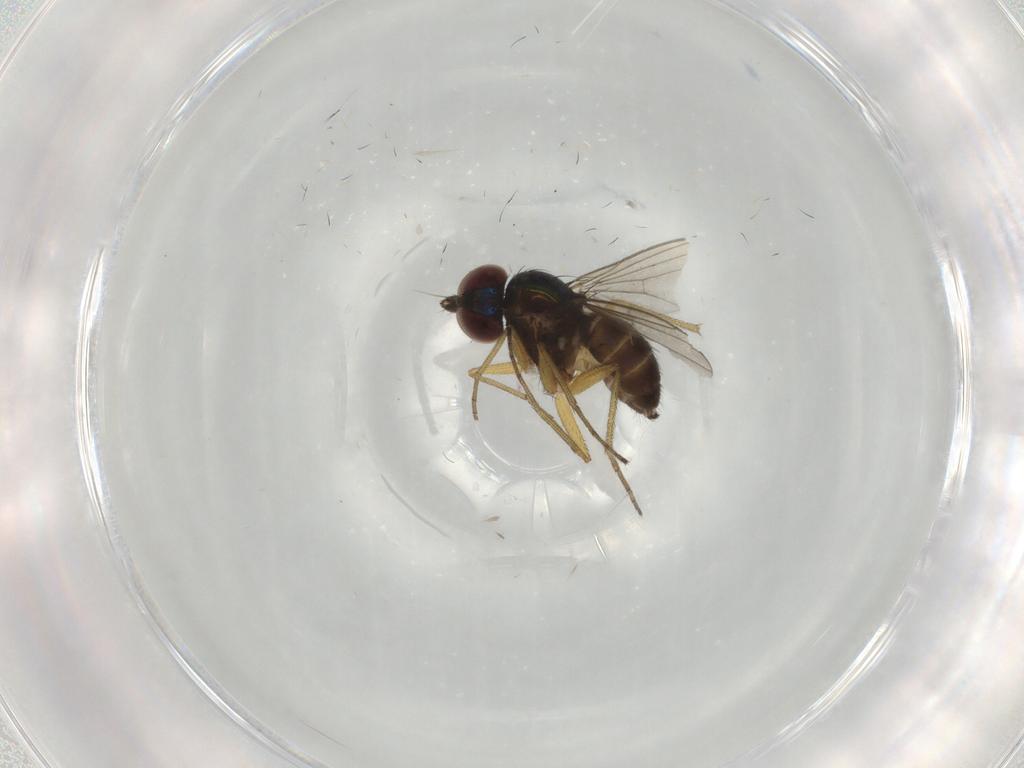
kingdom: Animalia
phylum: Arthropoda
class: Insecta
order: Diptera
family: Dolichopodidae
